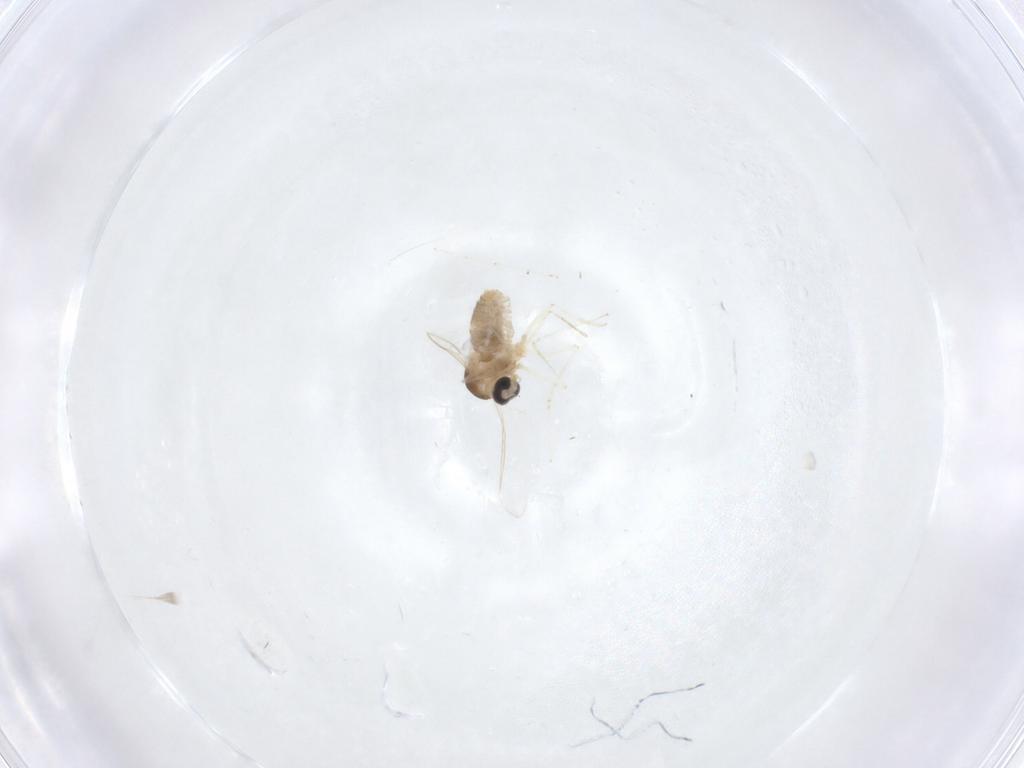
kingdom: Animalia
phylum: Arthropoda
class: Insecta
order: Diptera
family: Cecidomyiidae
